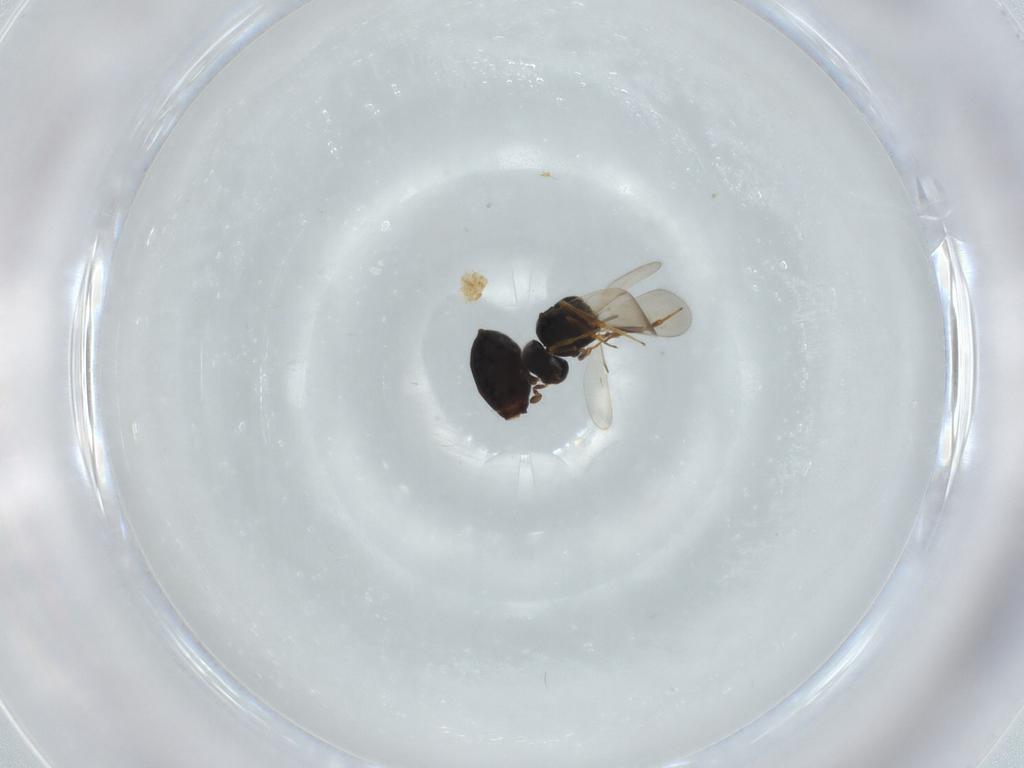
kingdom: Animalia
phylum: Arthropoda
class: Insecta
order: Hymenoptera
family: Scelionidae
